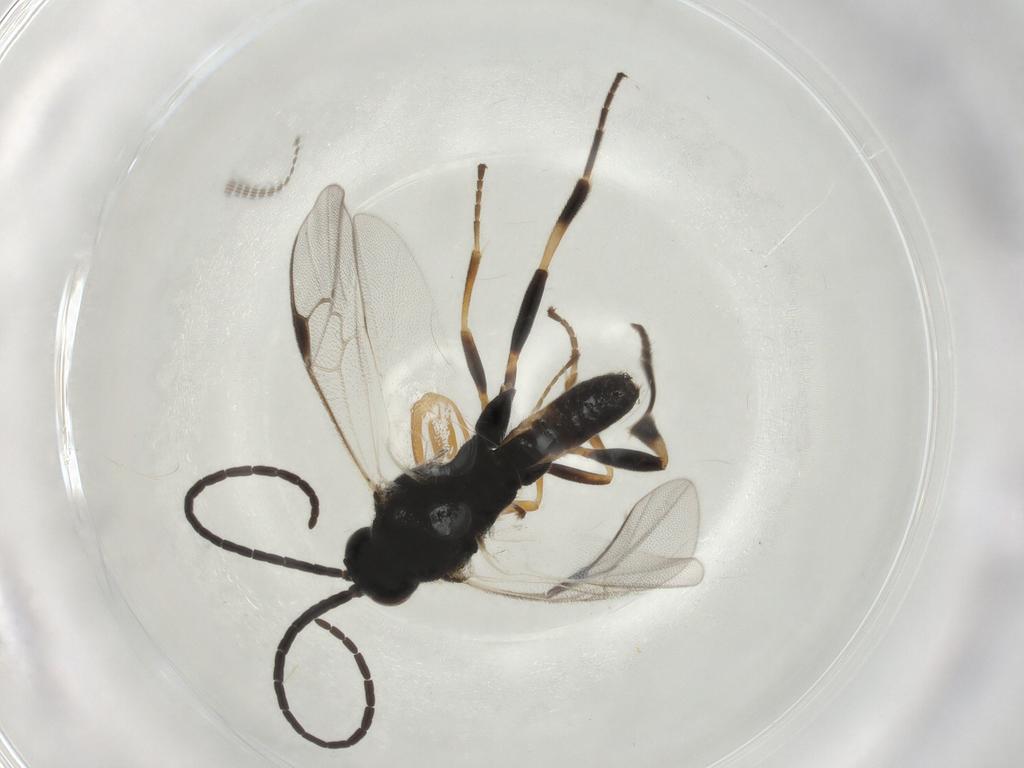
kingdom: Animalia
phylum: Arthropoda
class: Insecta
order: Hymenoptera
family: Braconidae
